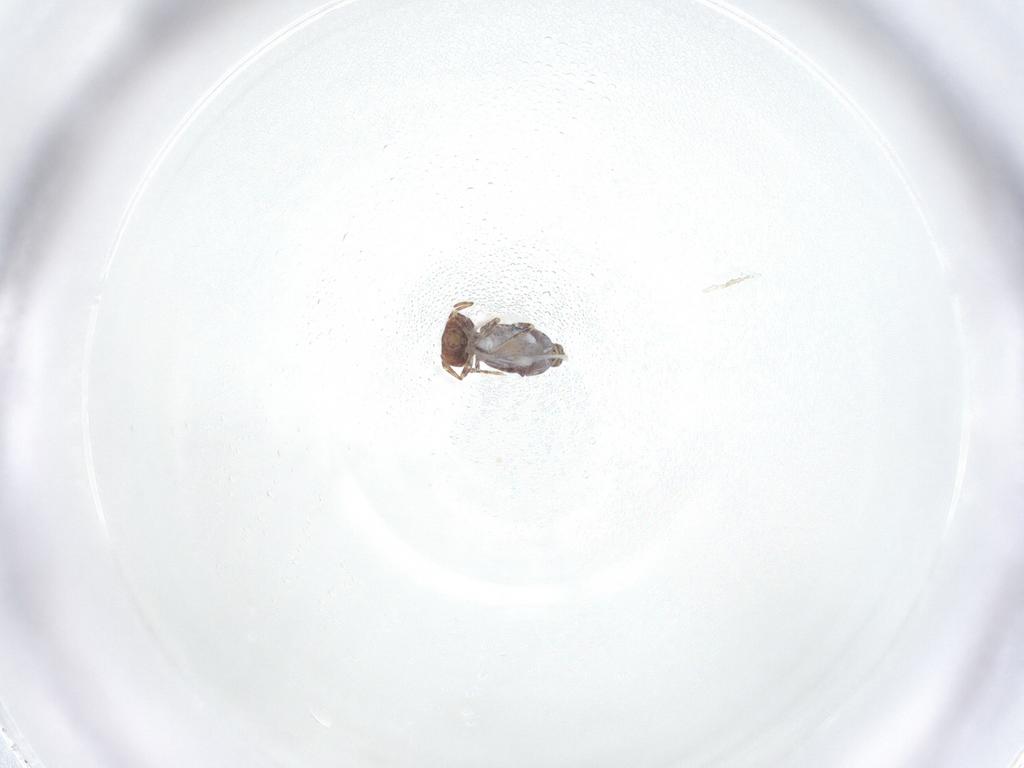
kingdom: Animalia
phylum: Arthropoda
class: Collembola
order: Symphypleona
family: Bourletiellidae
